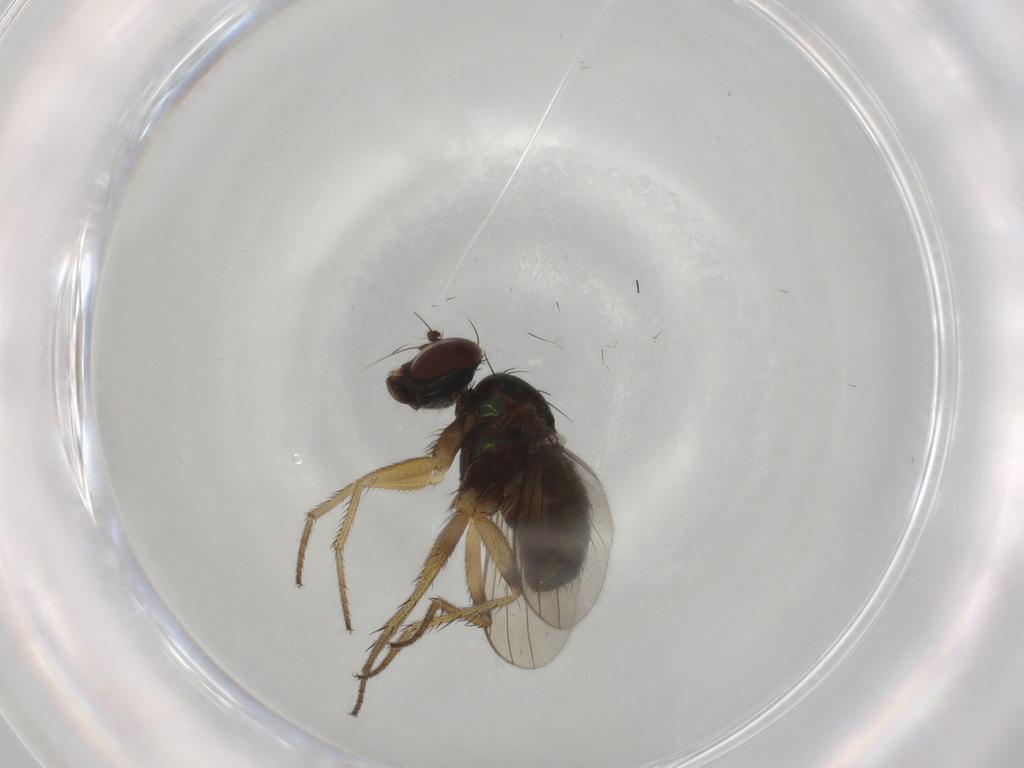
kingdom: Animalia
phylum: Arthropoda
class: Insecta
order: Diptera
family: Dolichopodidae
